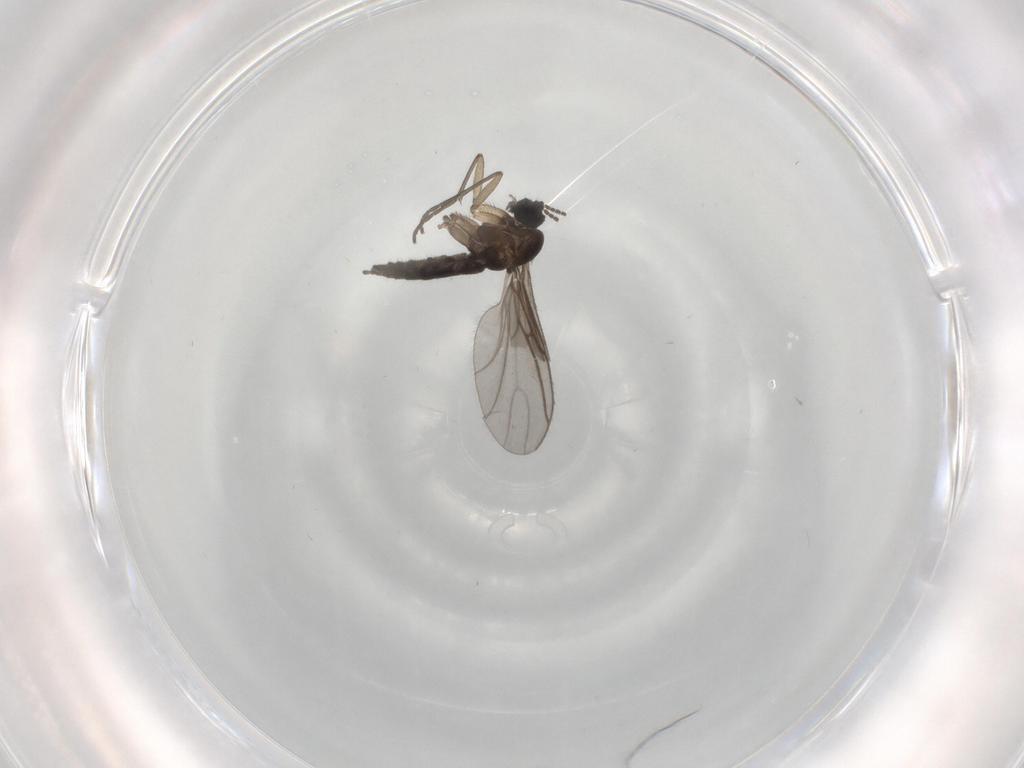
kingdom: Animalia
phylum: Arthropoda
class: Insecta
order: Diptera
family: Sciaridae
